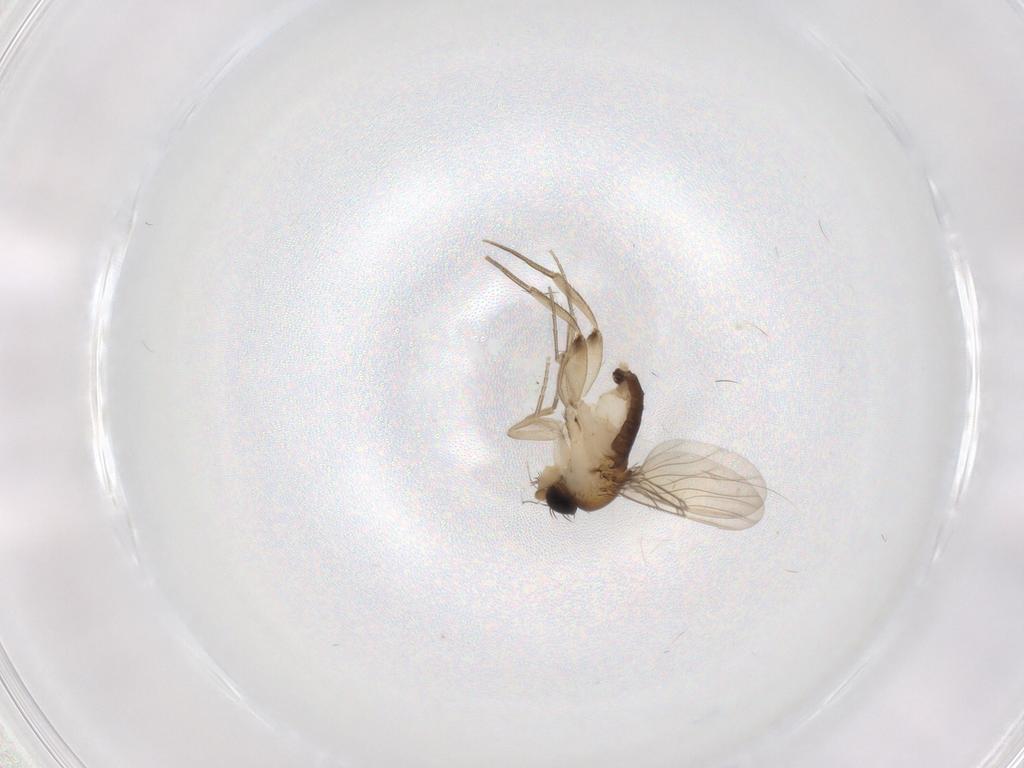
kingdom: Animalia
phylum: Arthropoda
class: Insecta
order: Diptera
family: Phoridae
